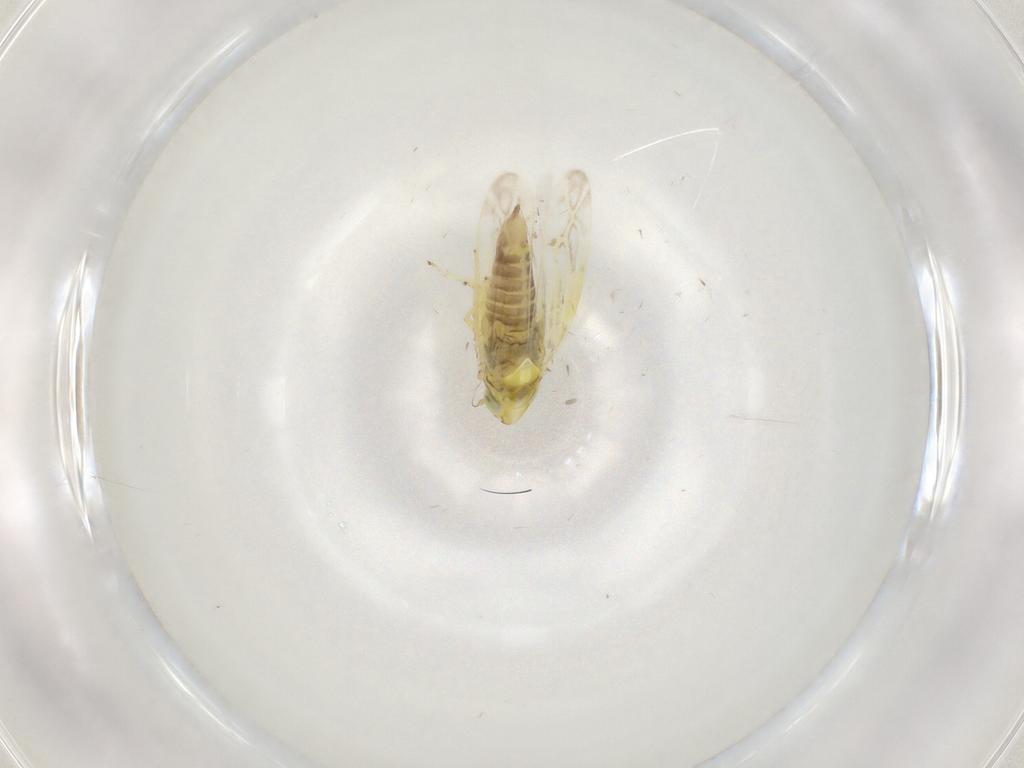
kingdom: Animalia
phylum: Arthropoda
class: Insecta
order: Hemiptera
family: Cicadellidae
